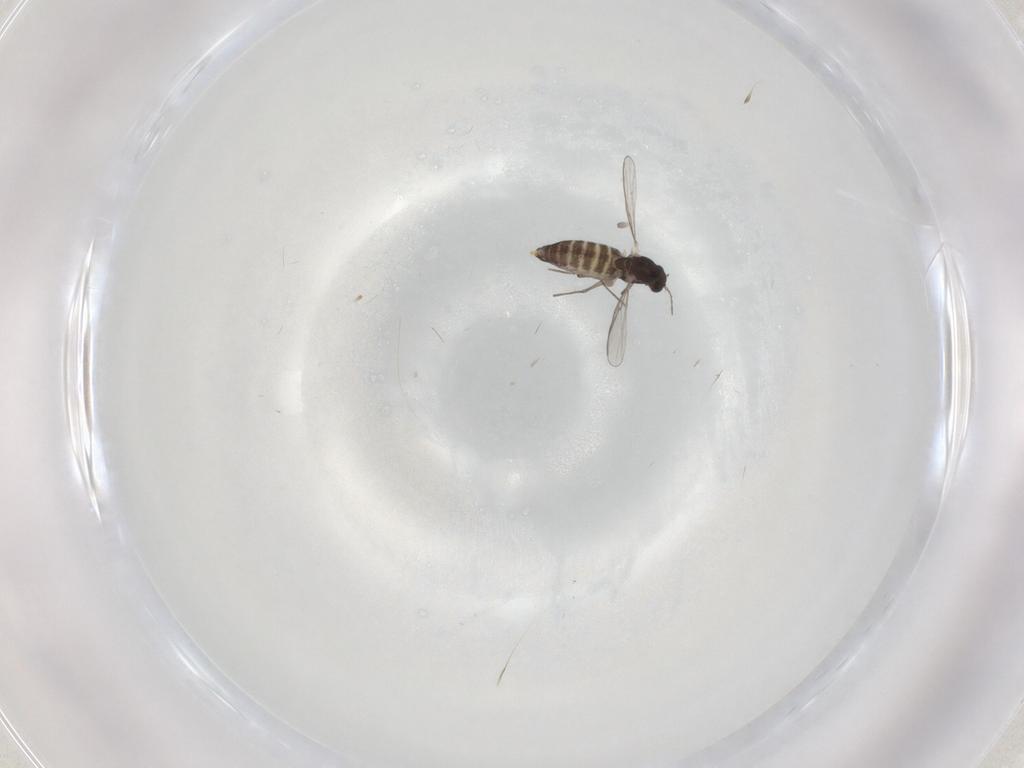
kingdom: Animalia
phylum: Arthropoda
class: Insecta
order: Diptera
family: Chironomidae
